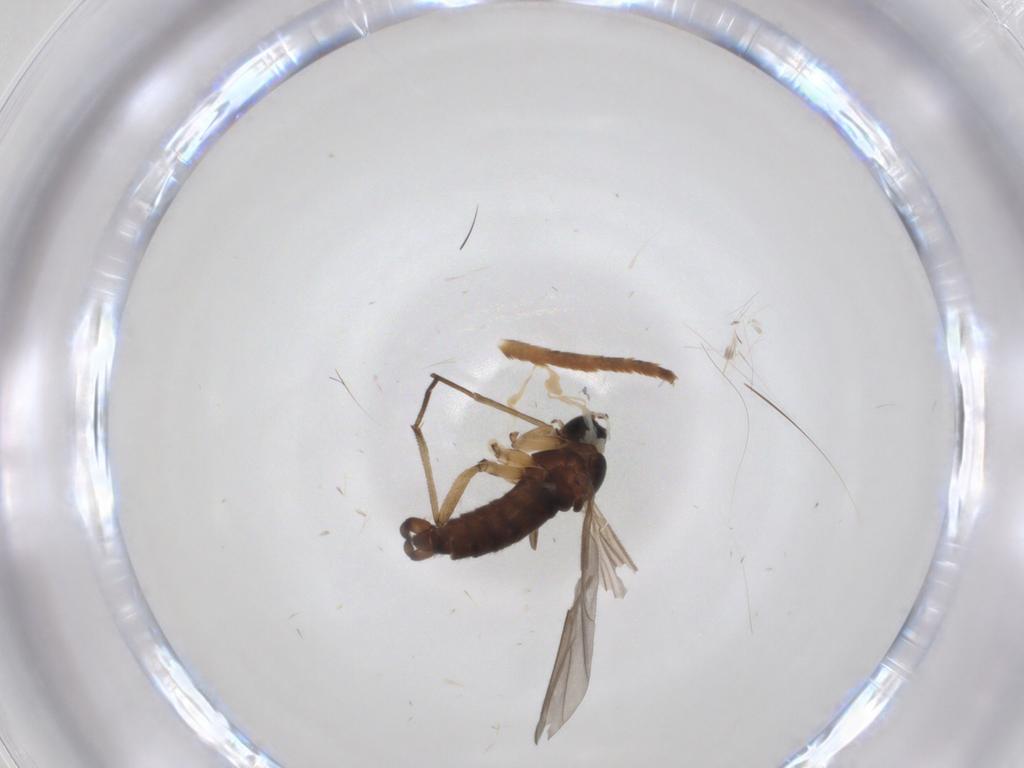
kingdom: Animalia
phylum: Arthropoda
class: Insecta
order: Diptera
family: Sciaridae
